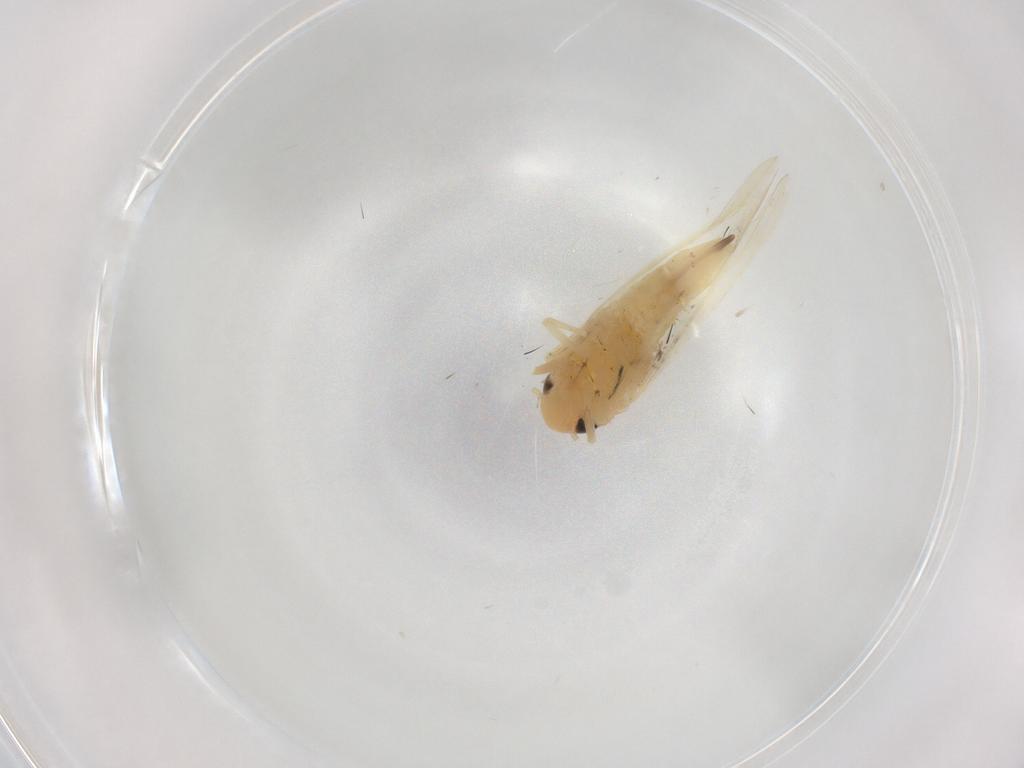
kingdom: Animalia
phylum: Arthropoda
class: Insecta
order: Hemiptera
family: Cicadellidae
